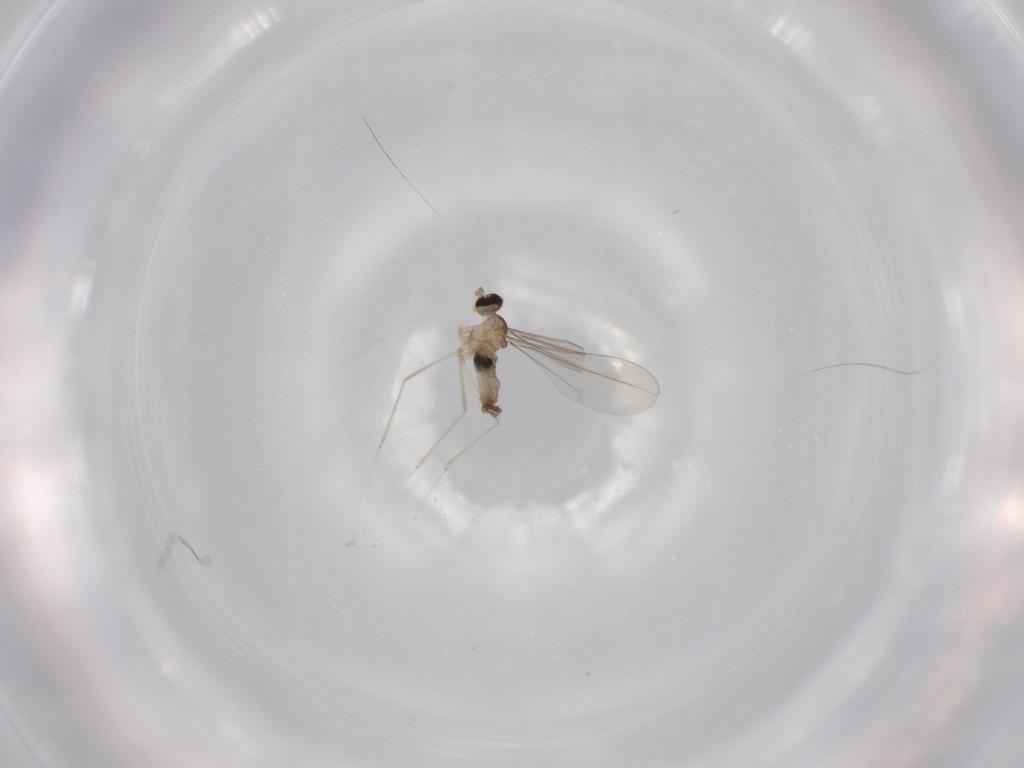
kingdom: Animalia
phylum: Arthropoda
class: Insecta
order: Diptera
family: Cecidomyiidae
